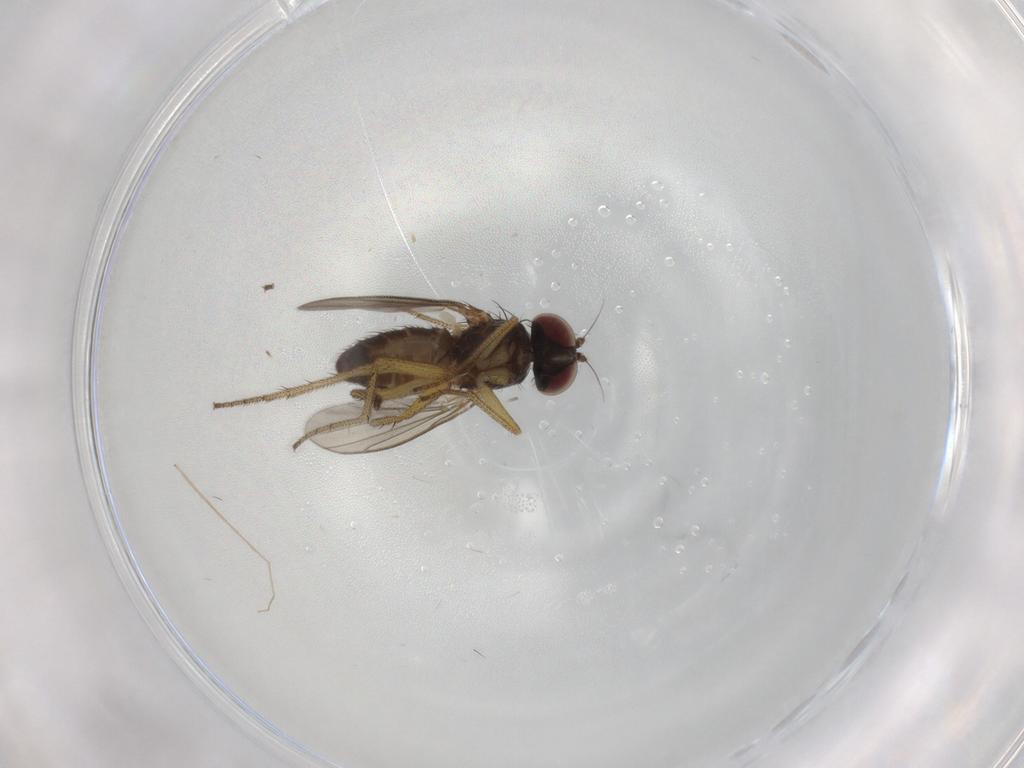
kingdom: Animalia
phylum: Arthropoda
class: Insecta
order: Diptera
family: Chironomidae
